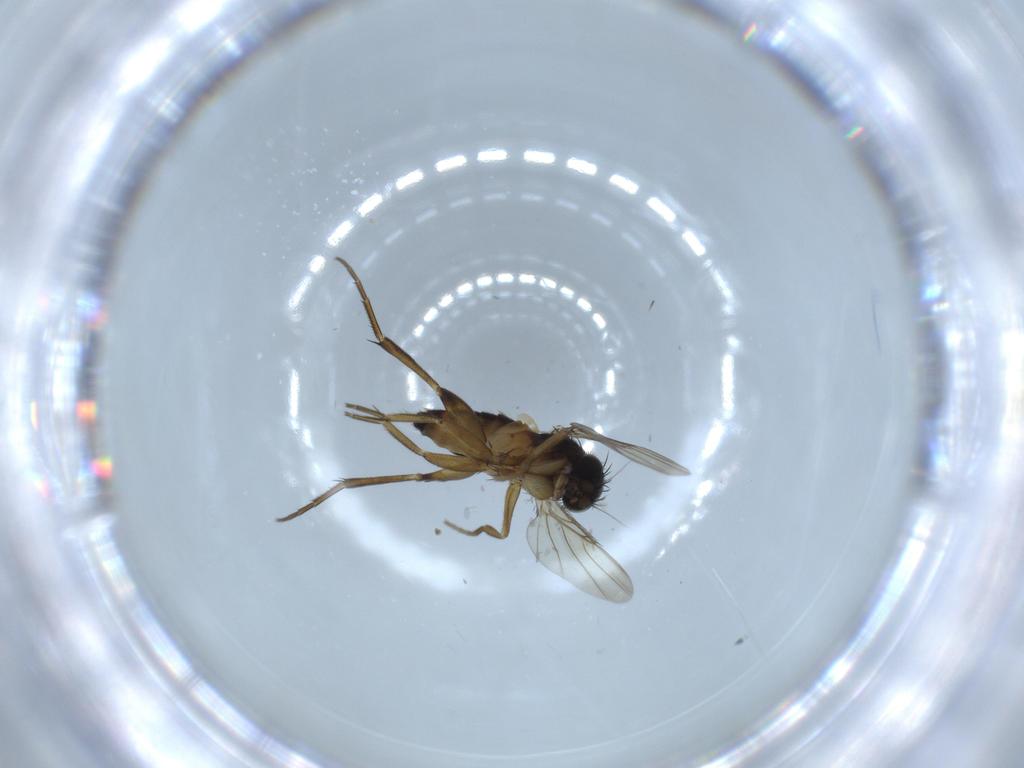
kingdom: Animalia
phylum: Arthropoda
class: Insecta
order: Diptera
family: Phoridae
